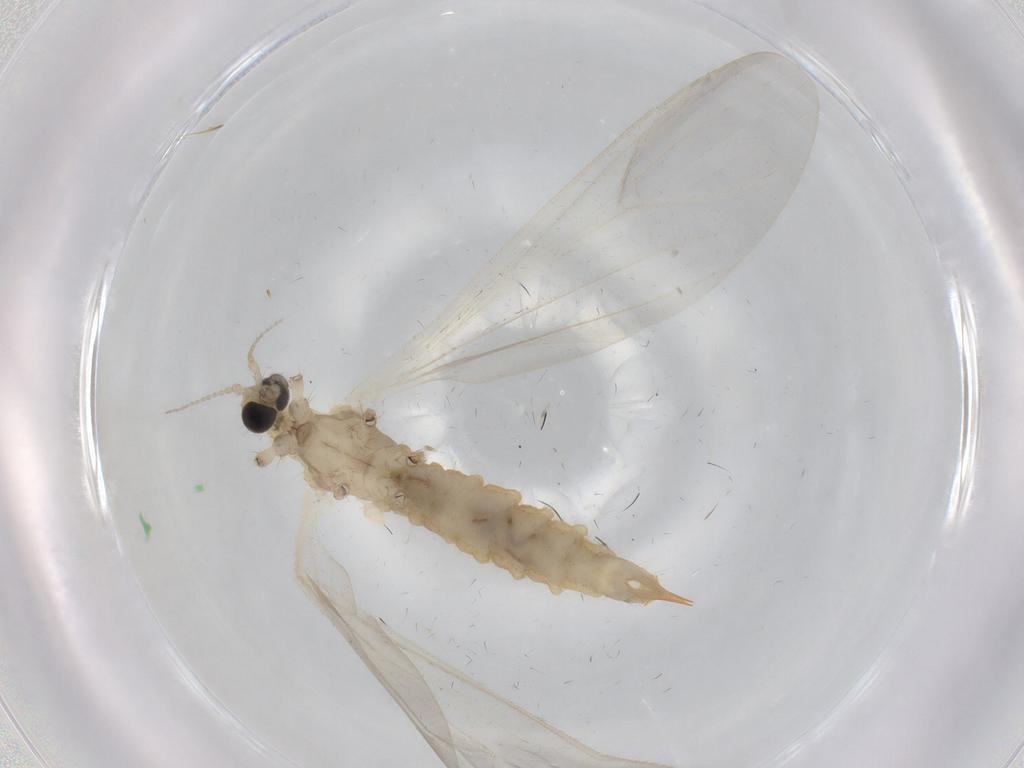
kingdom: Animalia
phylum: Arthropoda
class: Insecta
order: Diptera
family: Limoniidae
